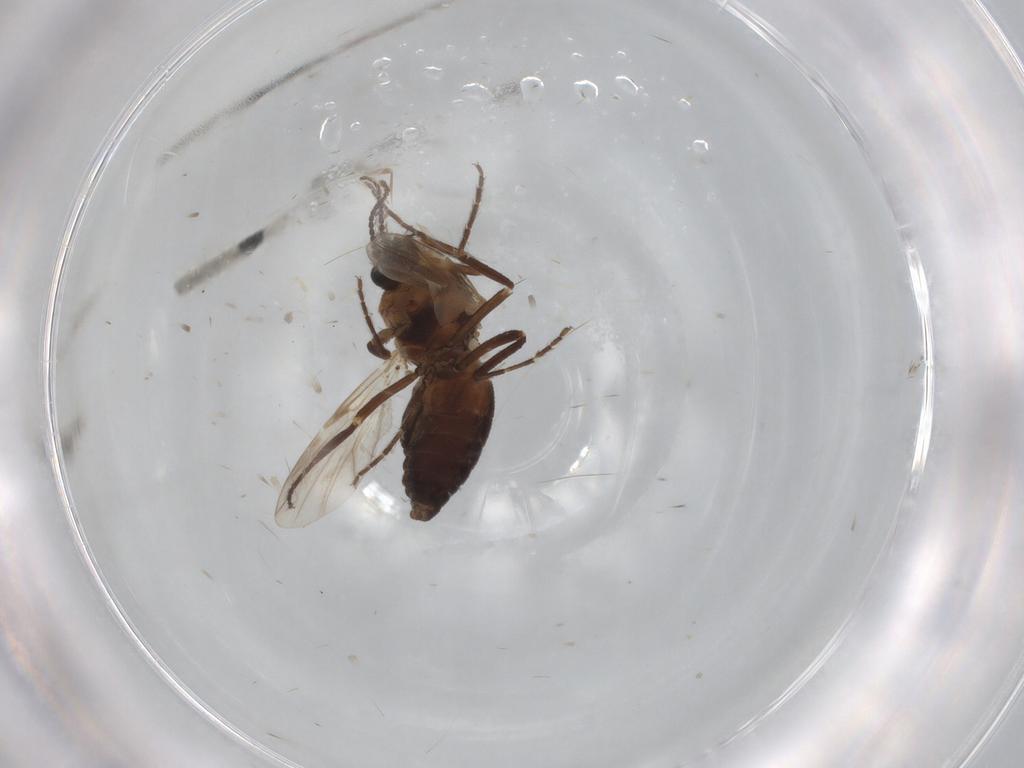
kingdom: Animalia
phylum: Arthropoda
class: Insecta
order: Diptera
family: Ceratopogonidae
